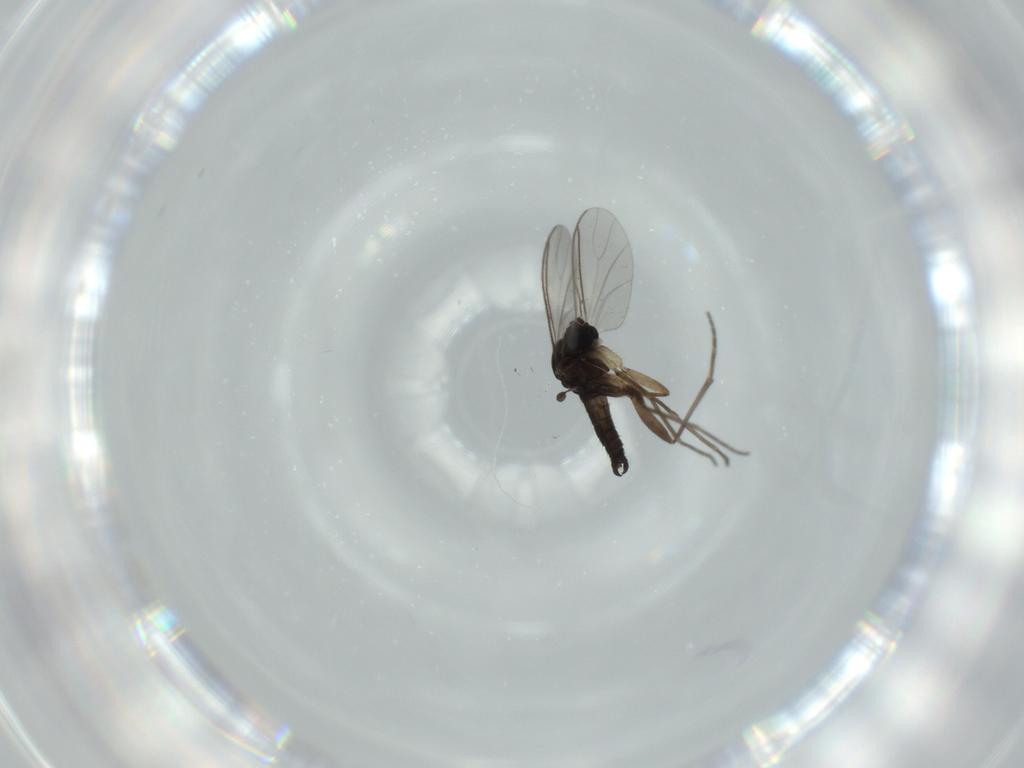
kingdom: Animalia
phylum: Arthropoda
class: Insecta
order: Diptera
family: Sciaridae
